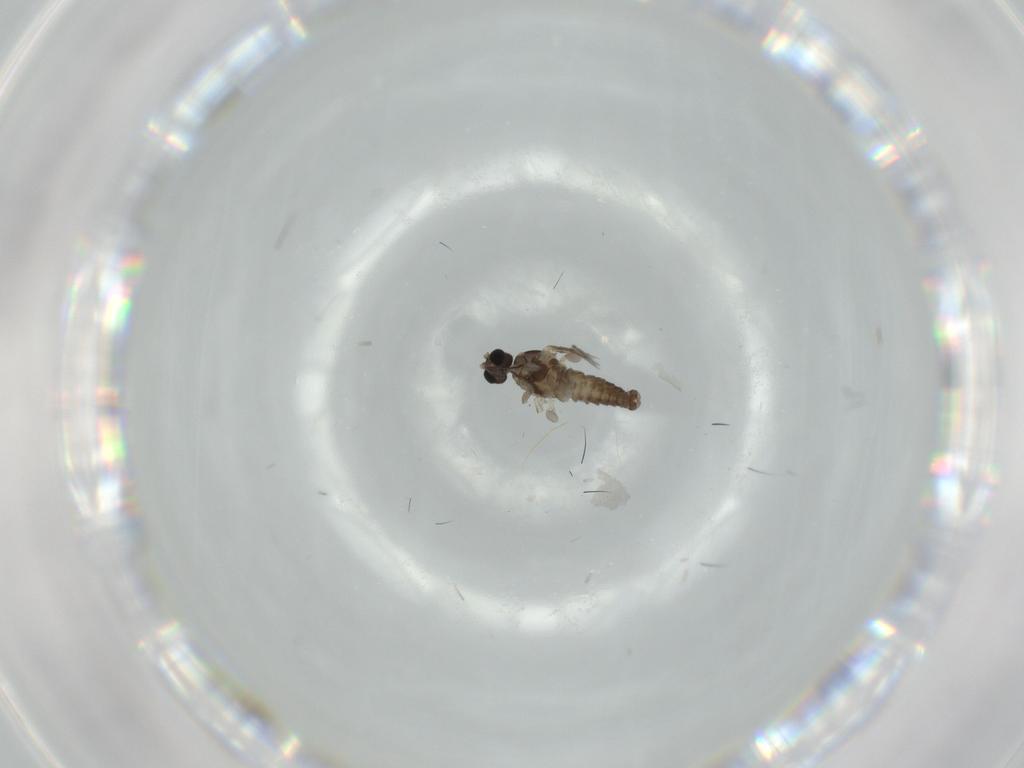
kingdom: Animalia
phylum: Arthropoda
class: Insecta
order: Diptera
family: Cecidomyiidae
